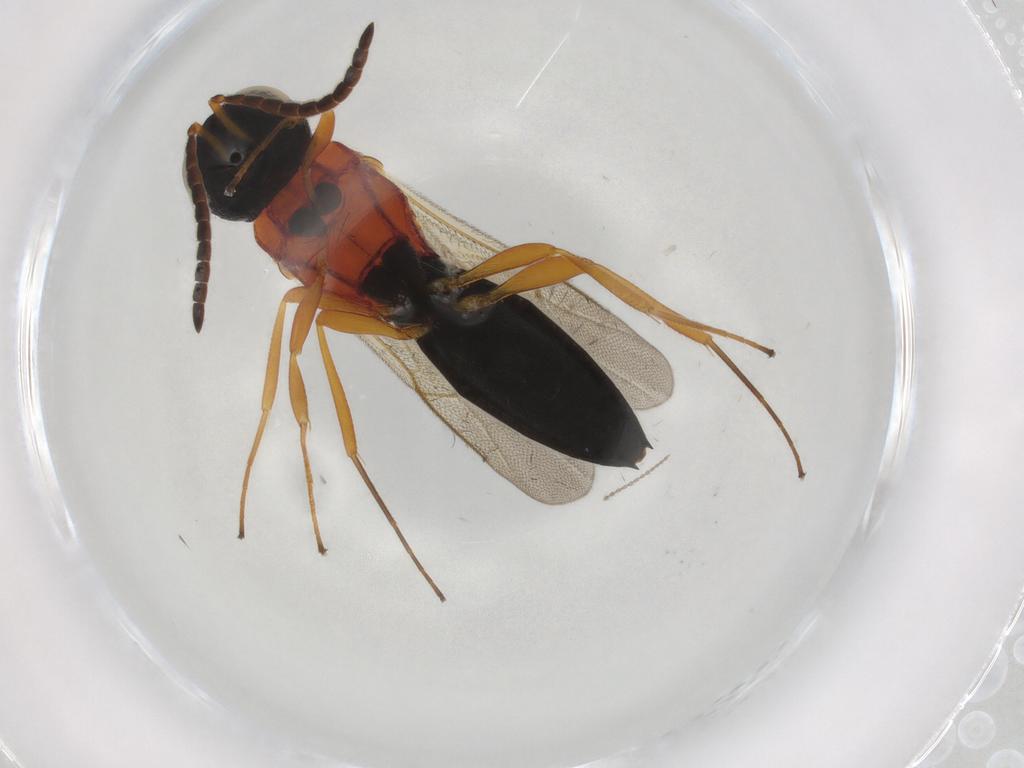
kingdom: Animalia
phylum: Arthropoda
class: Insecta
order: Hymenoptera
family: Scelionidae
